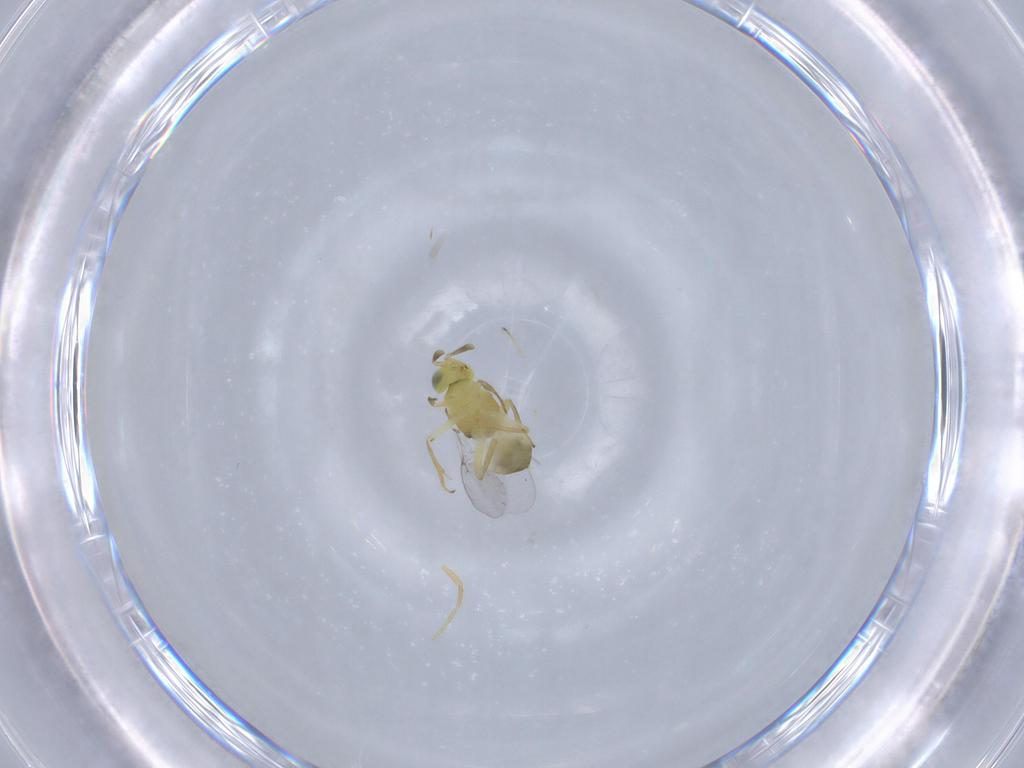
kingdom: Animalia
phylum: Arthropoda
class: Insecta
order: Hymenoptera
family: Encyrtidae
